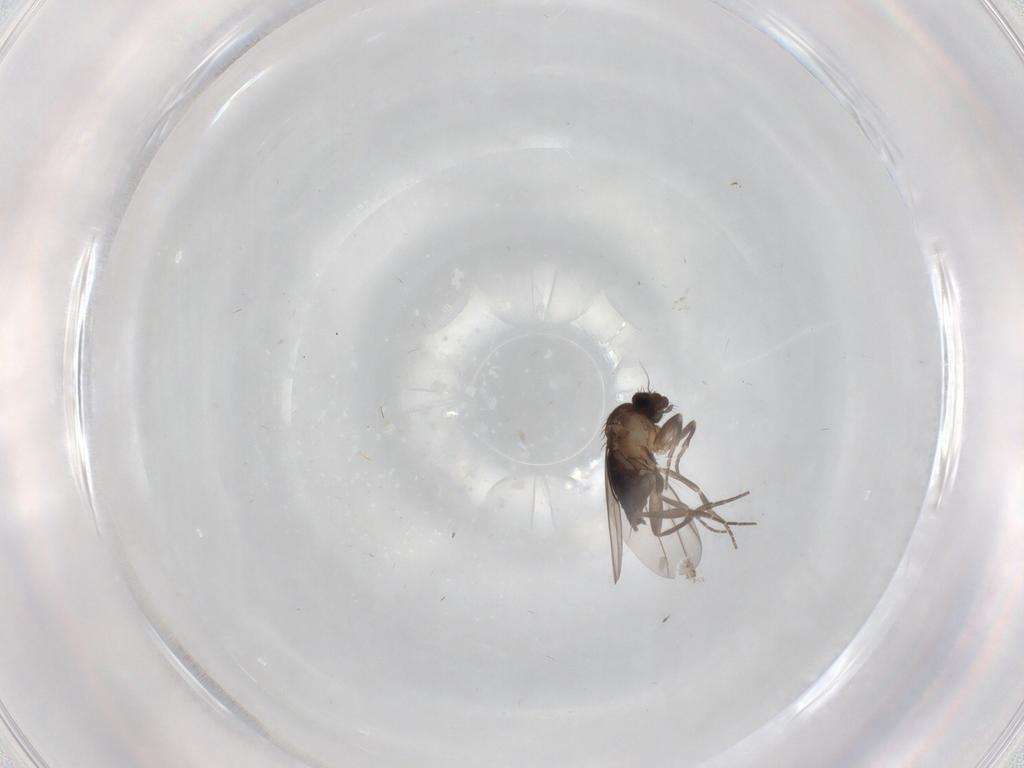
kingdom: Animalia
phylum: Arthropoda
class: Insecta
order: Diptera
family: Phoridae
